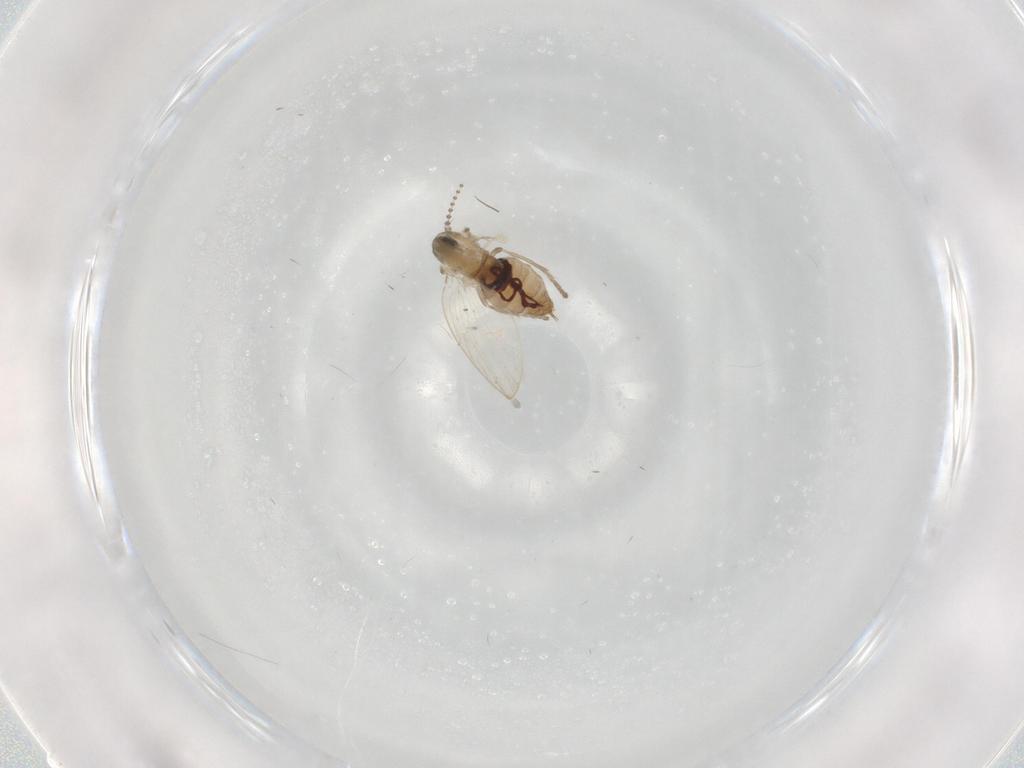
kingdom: Animalia
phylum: Arthropoda
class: Insecta
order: Diptera
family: Psychodidae
